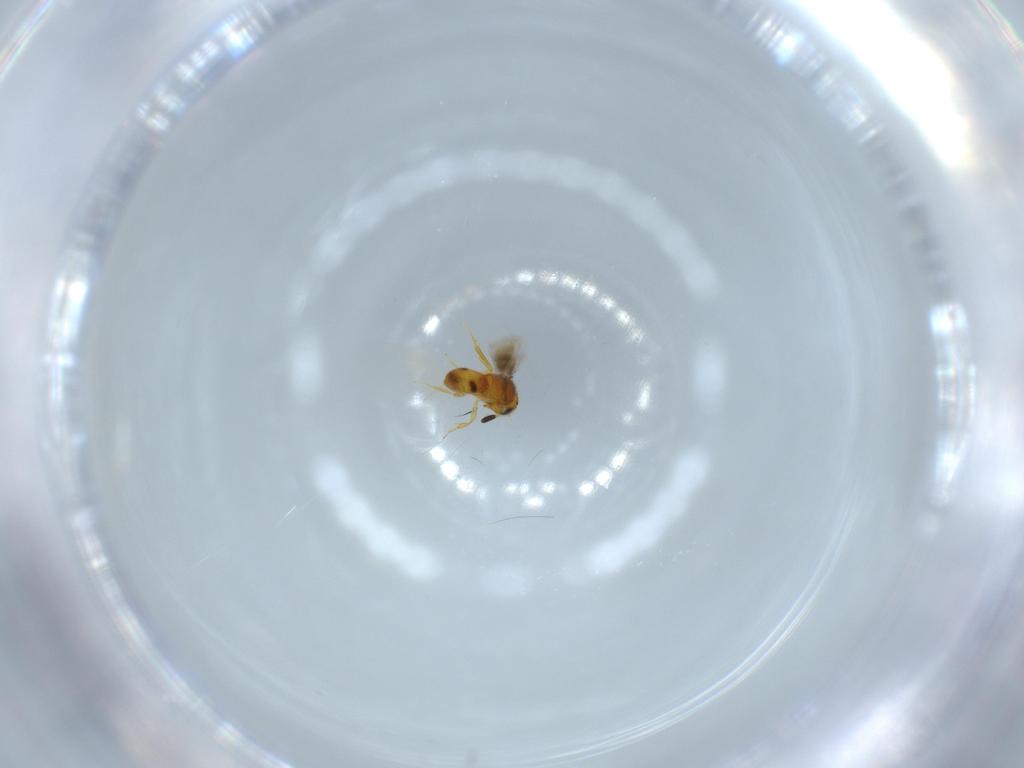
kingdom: Animalia
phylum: Arthropoda
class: Insecta
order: Hymenoptera
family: Scelionidae
